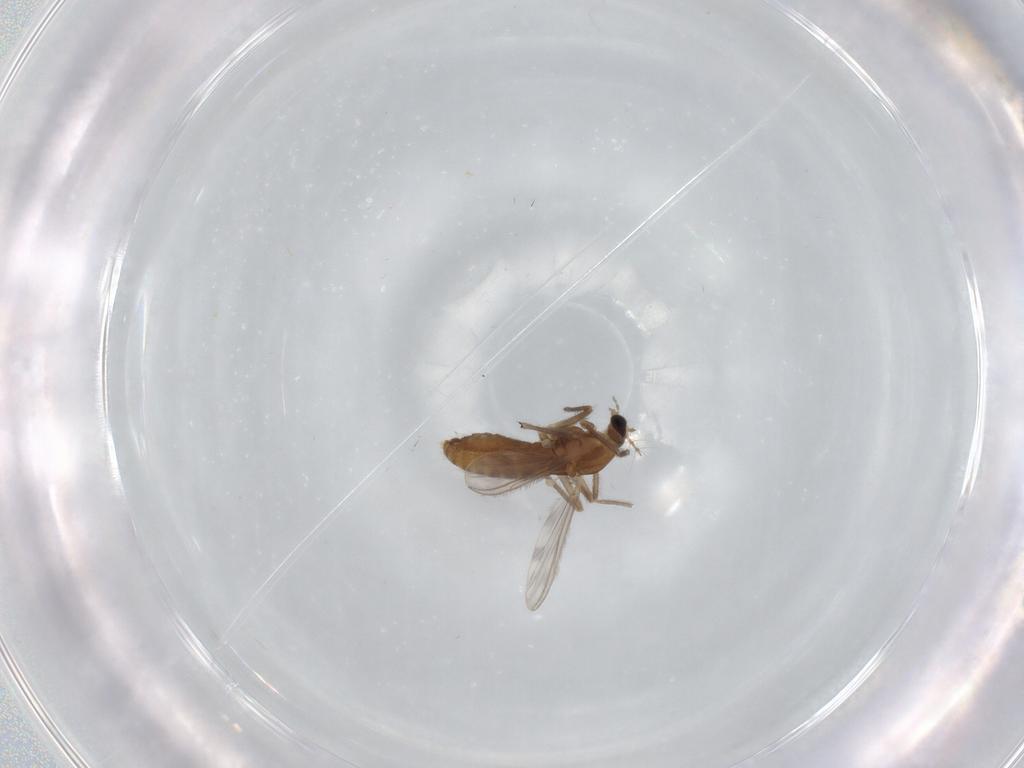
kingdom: Animalia
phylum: Arthropoda
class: Insecta
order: Diptera
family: Chironomidae
